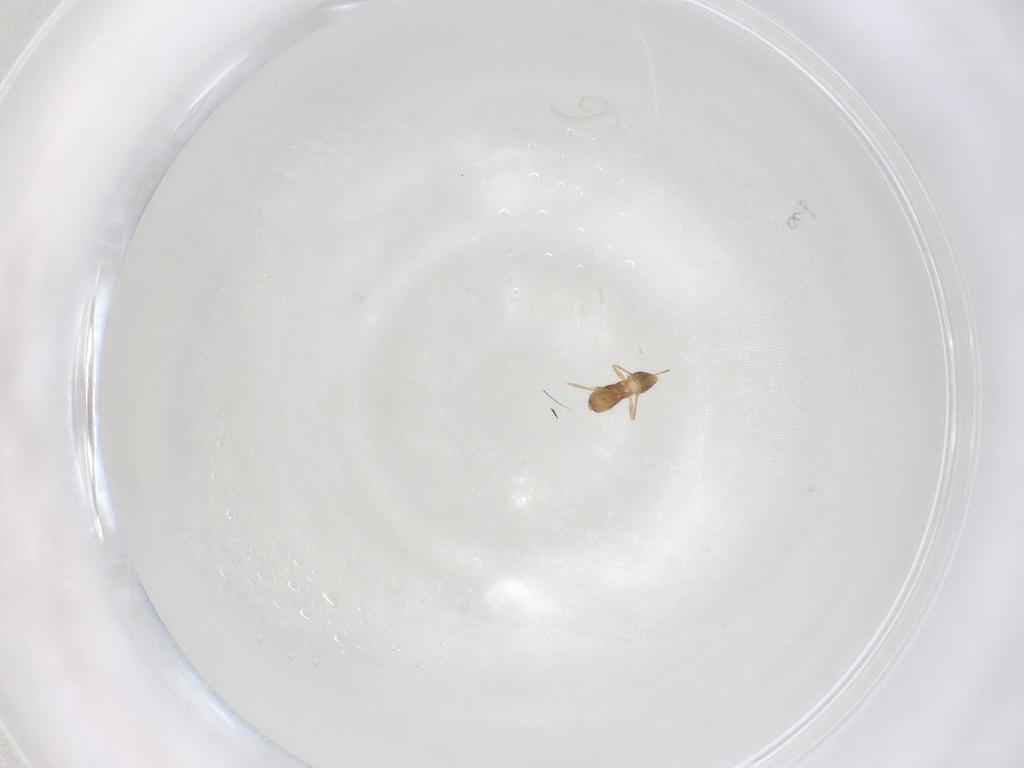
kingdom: Animalia
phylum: Arthropoda
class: Insecta
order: Hymenoptera
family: Mymaridae
